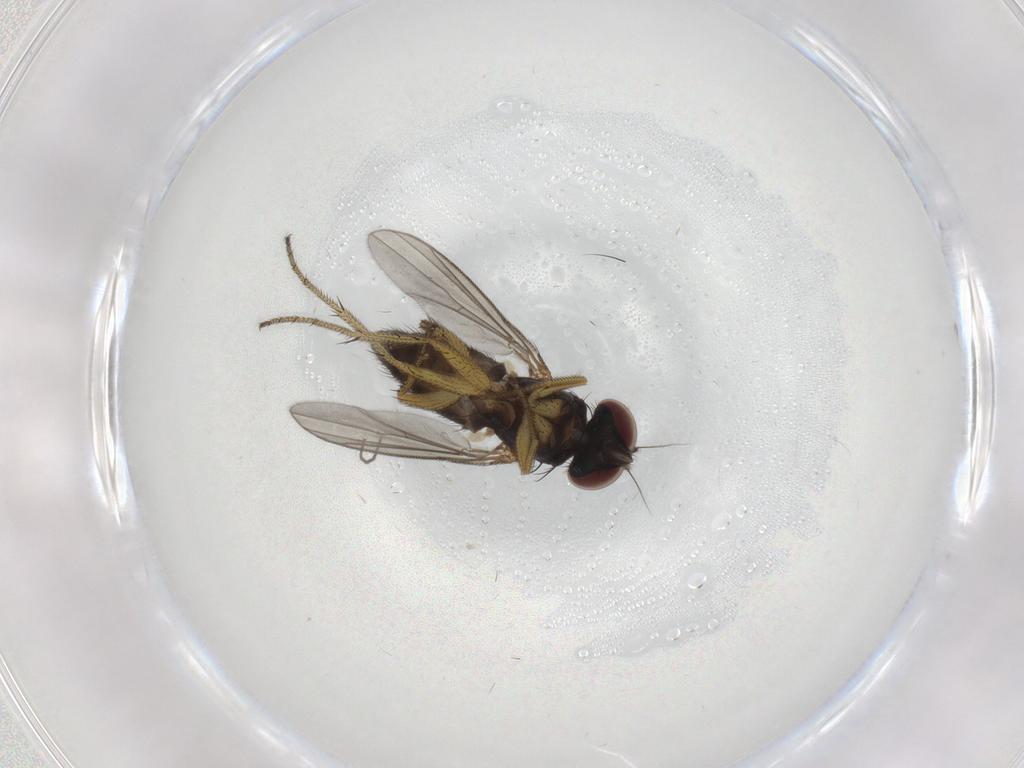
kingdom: Animalia
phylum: Arthropoda
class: Insecta
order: Diptera
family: Chironomidae
